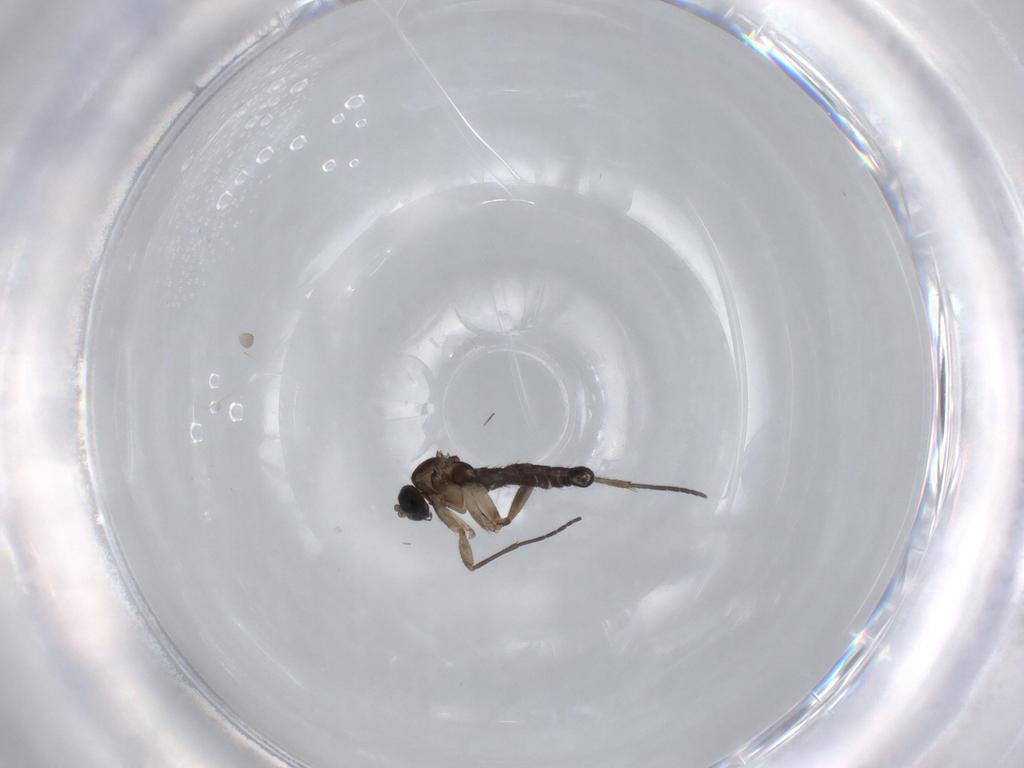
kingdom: Animalia
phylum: Arthropoda
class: Insecta
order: Diptera
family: Sciaridae
